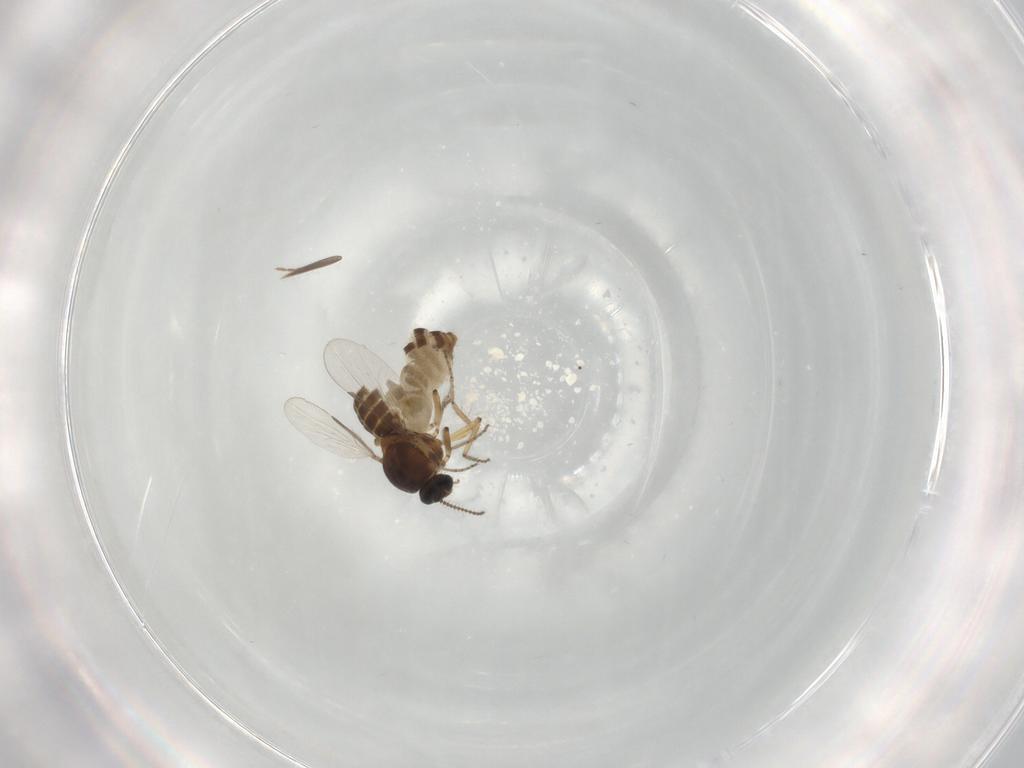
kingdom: Animalia
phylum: Arthropoda
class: Insecta
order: Diptera
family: Ceratopogonidae
